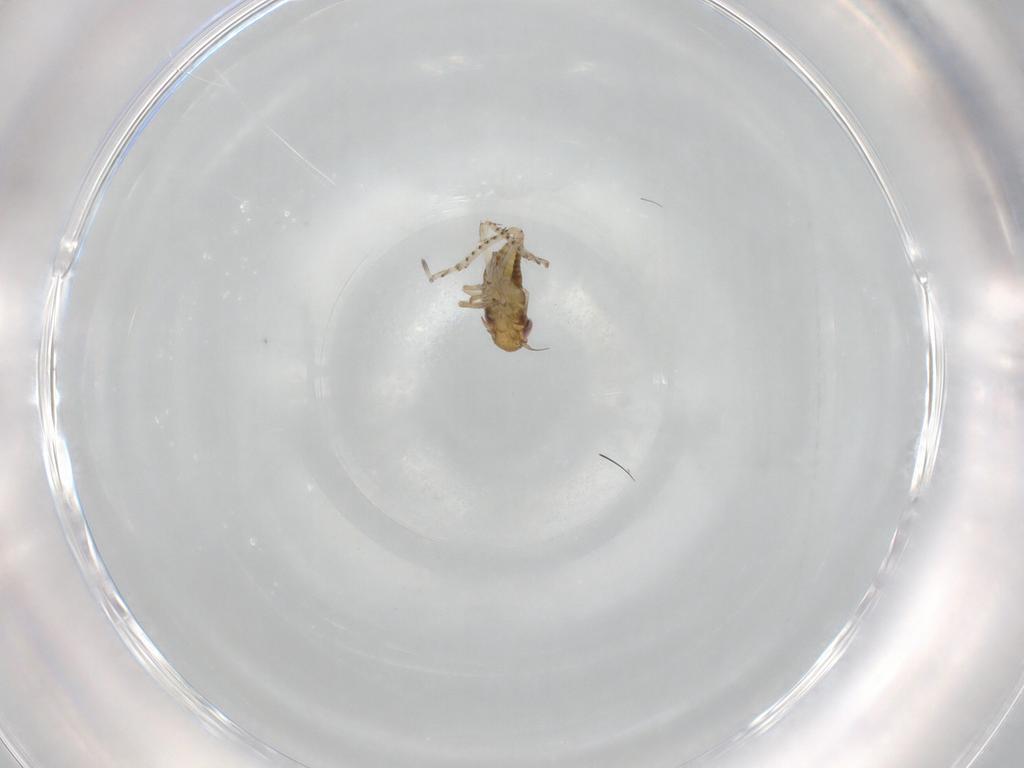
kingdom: Animalia
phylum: Arthropoda
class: Insecta
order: Hemiptera
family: Cicadellidae
